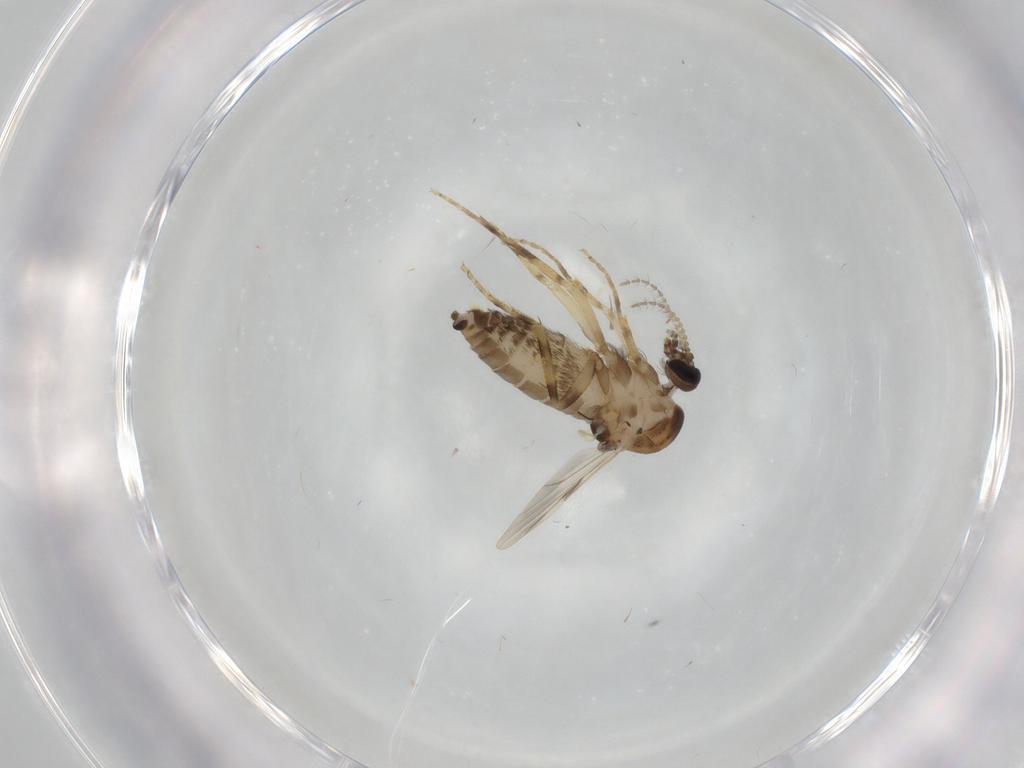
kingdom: Animalia
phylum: Arthropoda
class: Insecta
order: Diptera
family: Ceratopogonidae
